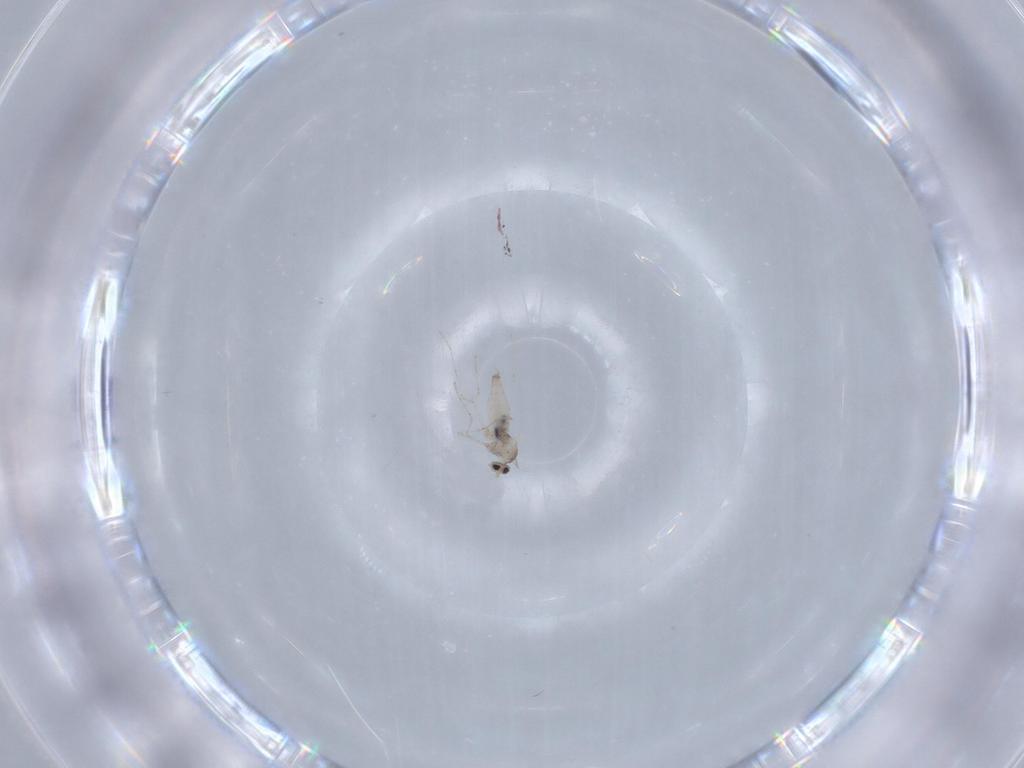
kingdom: Animalia
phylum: Arthropoda
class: Insecta
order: Diptera
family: Cecidomyiidae
